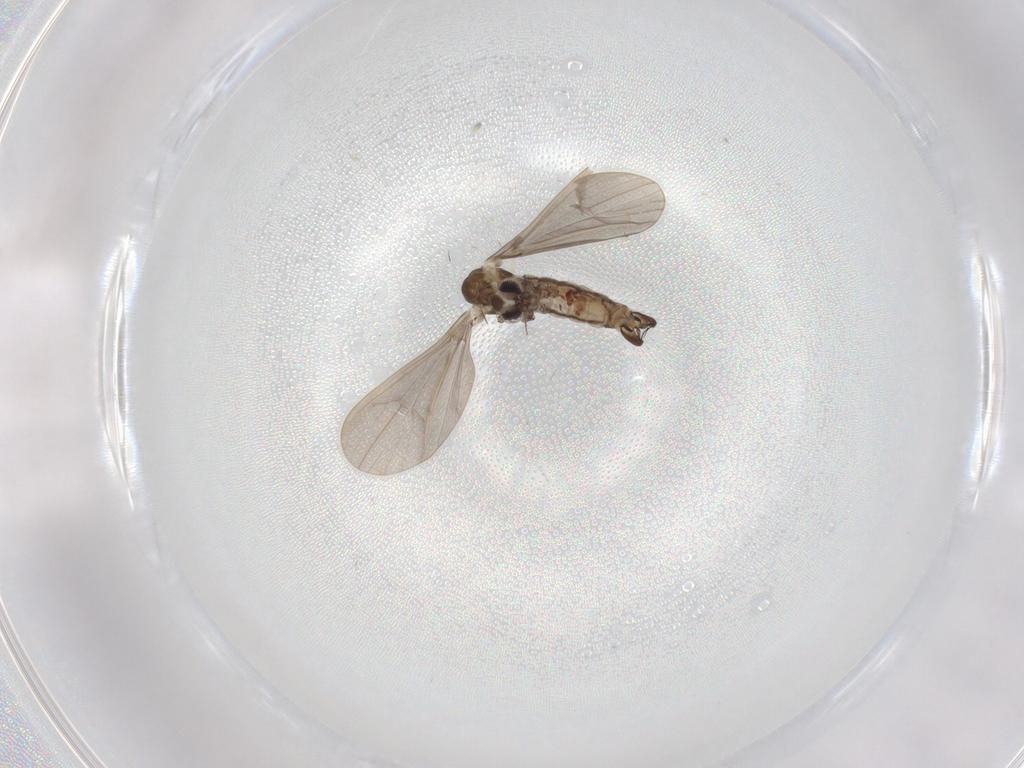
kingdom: Animalia
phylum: Arthropoda
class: Insecta
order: Diptera
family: Limoniidae
